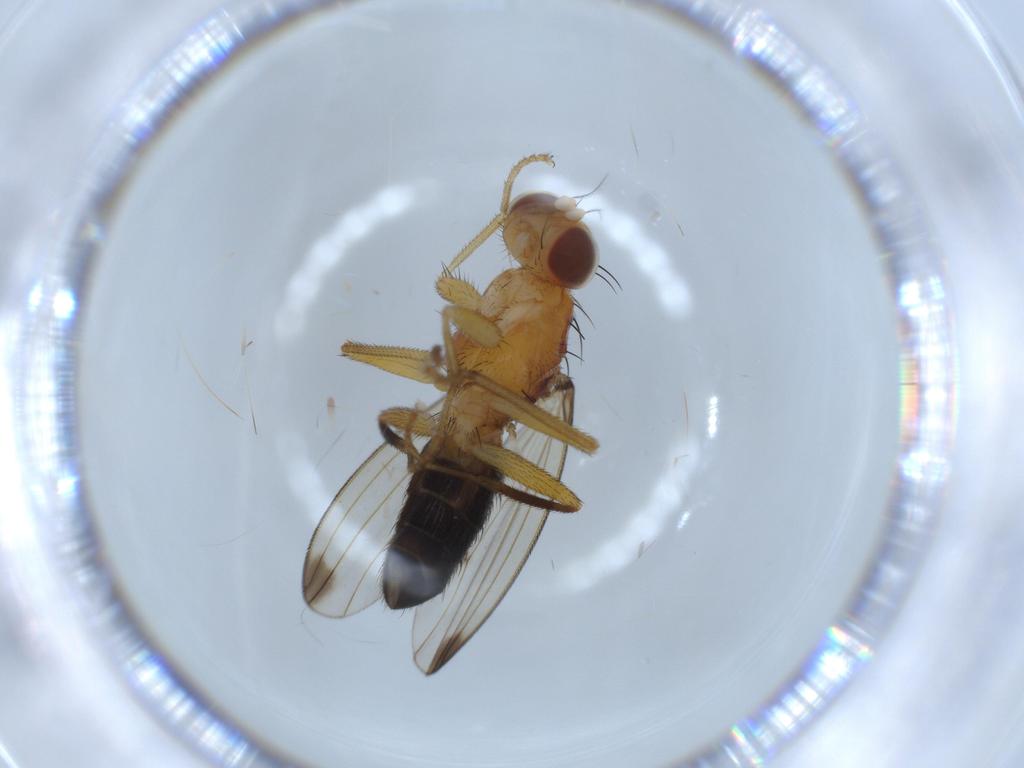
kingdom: Animalia
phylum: Arthropoda
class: Insecta
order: Diptera
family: Opomyzidae
